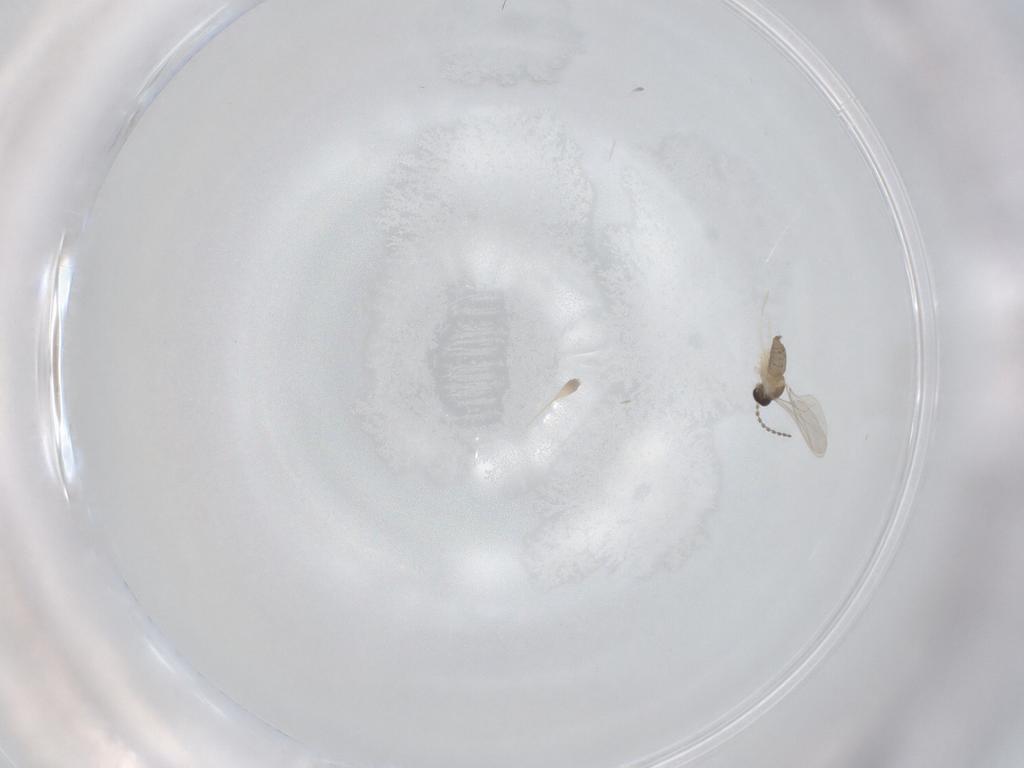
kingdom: Animalia
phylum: Arthropoda
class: Insecta
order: Diptera
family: Cecidomyiidae
